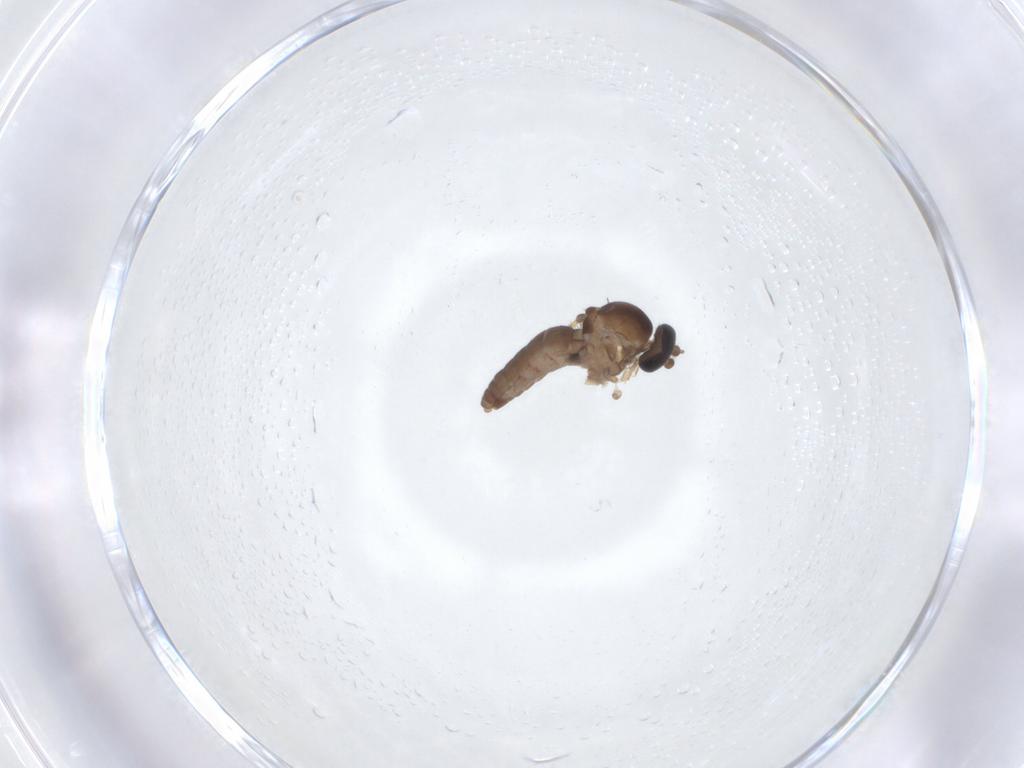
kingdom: Animalia
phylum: Arthropoda
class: Insecta
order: Diptera
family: Ceratopogonidae
